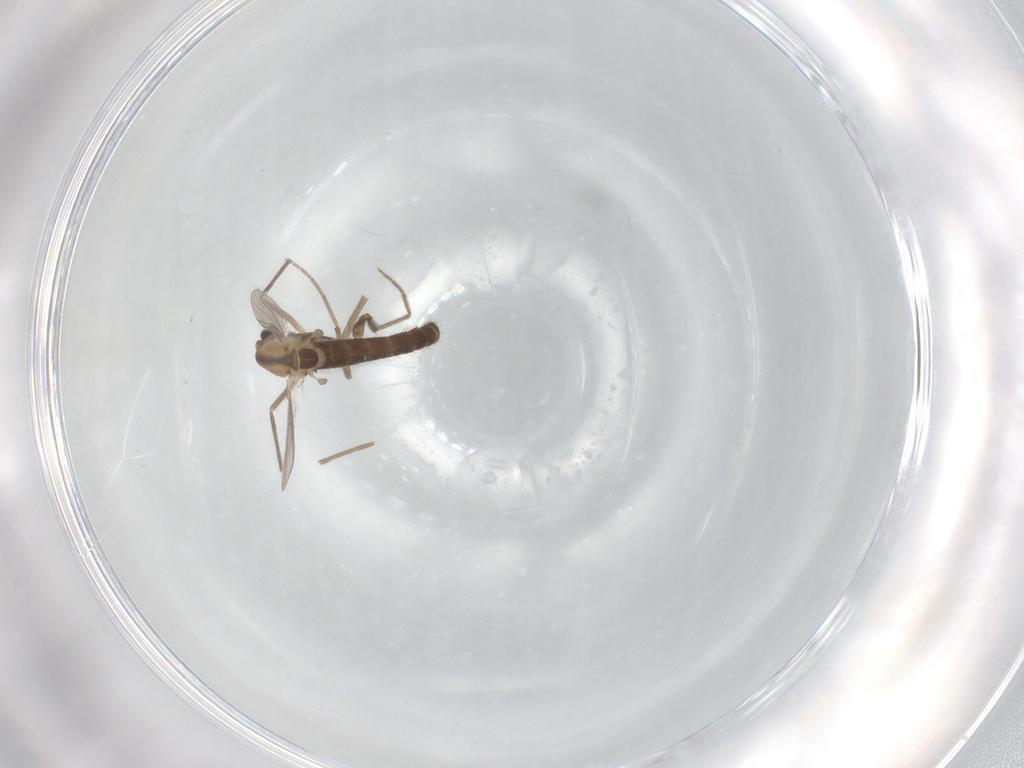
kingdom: Animalia
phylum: Arthropoda
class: Insecta
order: Diptera
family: Chironomidae
